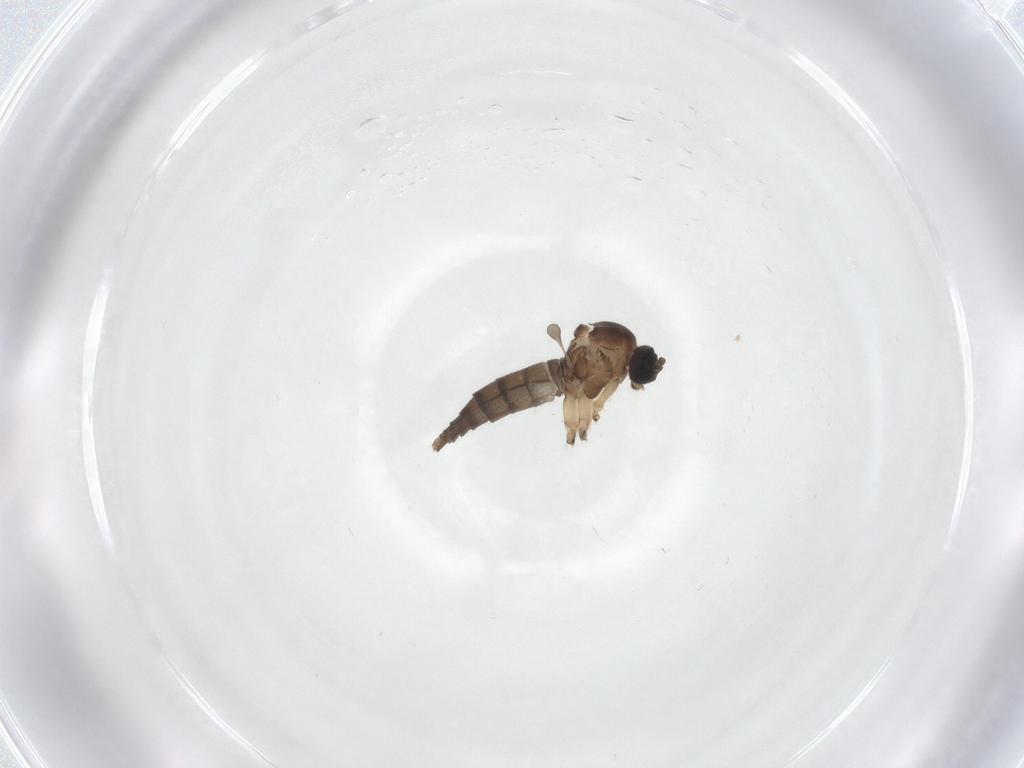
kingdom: Animalia
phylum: Arthropoda
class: Insecta
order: Diptera
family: Sciaridae
